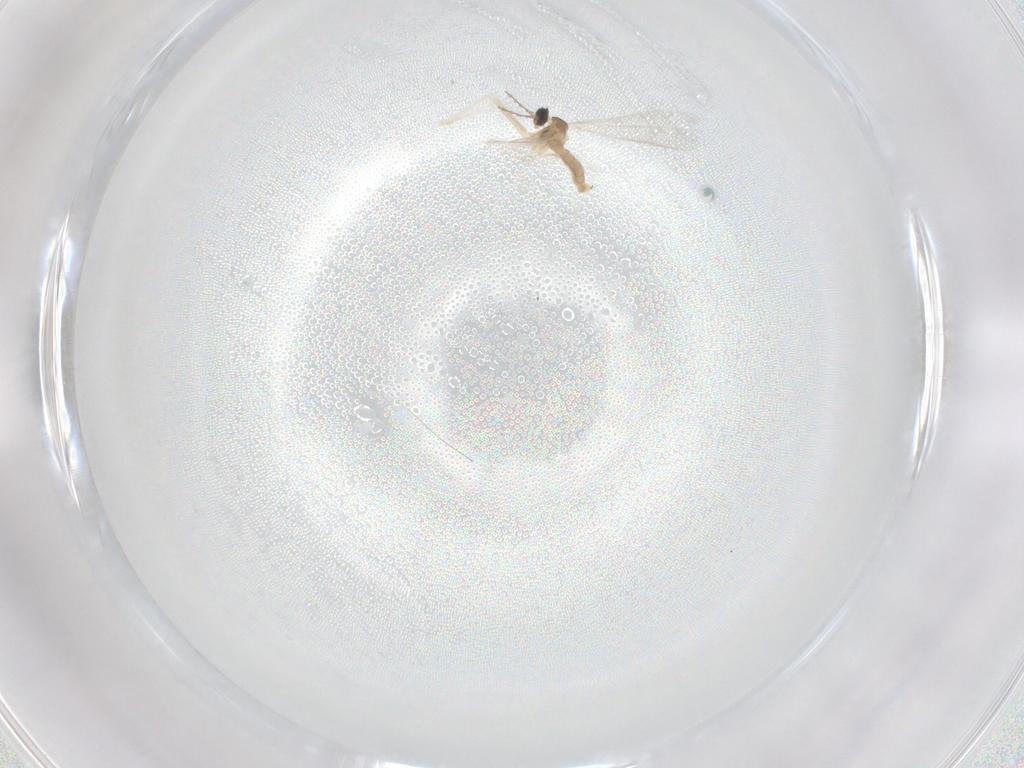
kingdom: Animalia
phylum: Arthropoda
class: Insecta
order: Diptera
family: Cecidomyiidae
